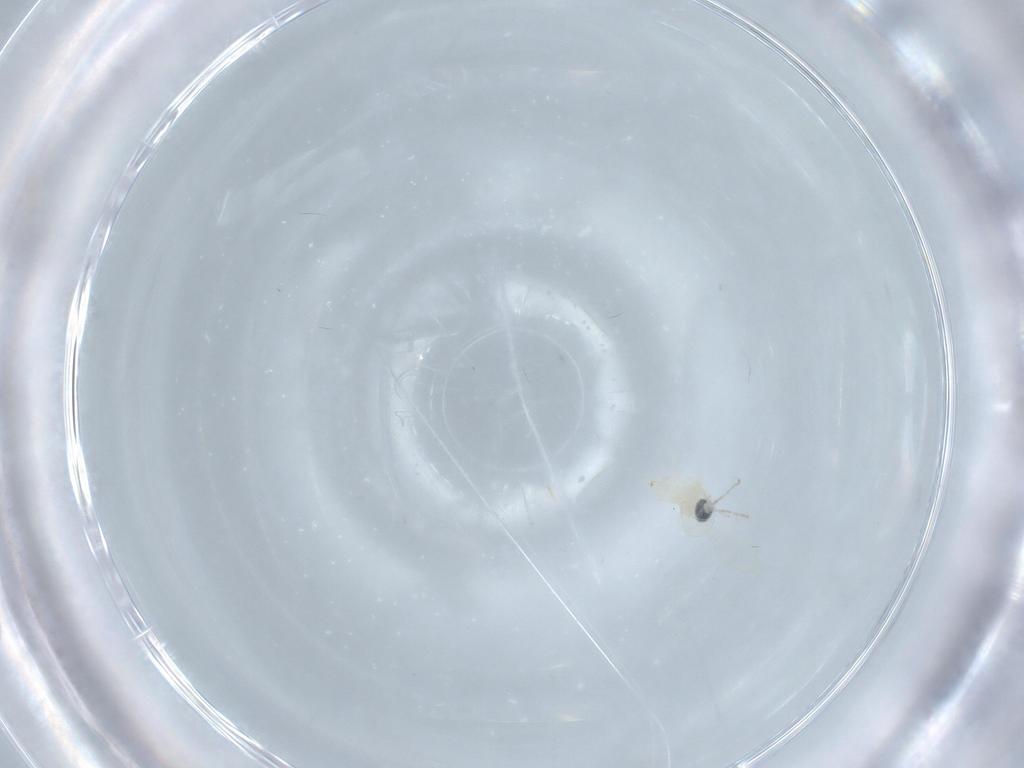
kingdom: Animalia
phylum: Arthropoda
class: Insecta
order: Diptera
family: Cecidomyiidae
